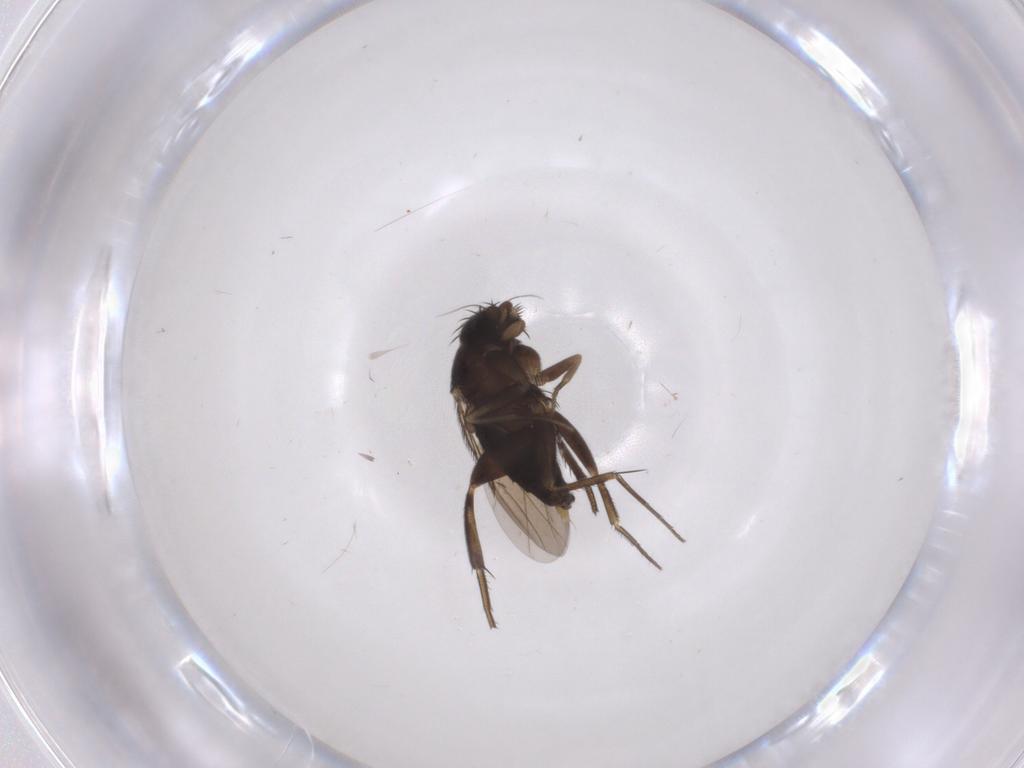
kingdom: Animalia
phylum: Arthropoda
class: Insecta
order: Diptera
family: Phoridae
